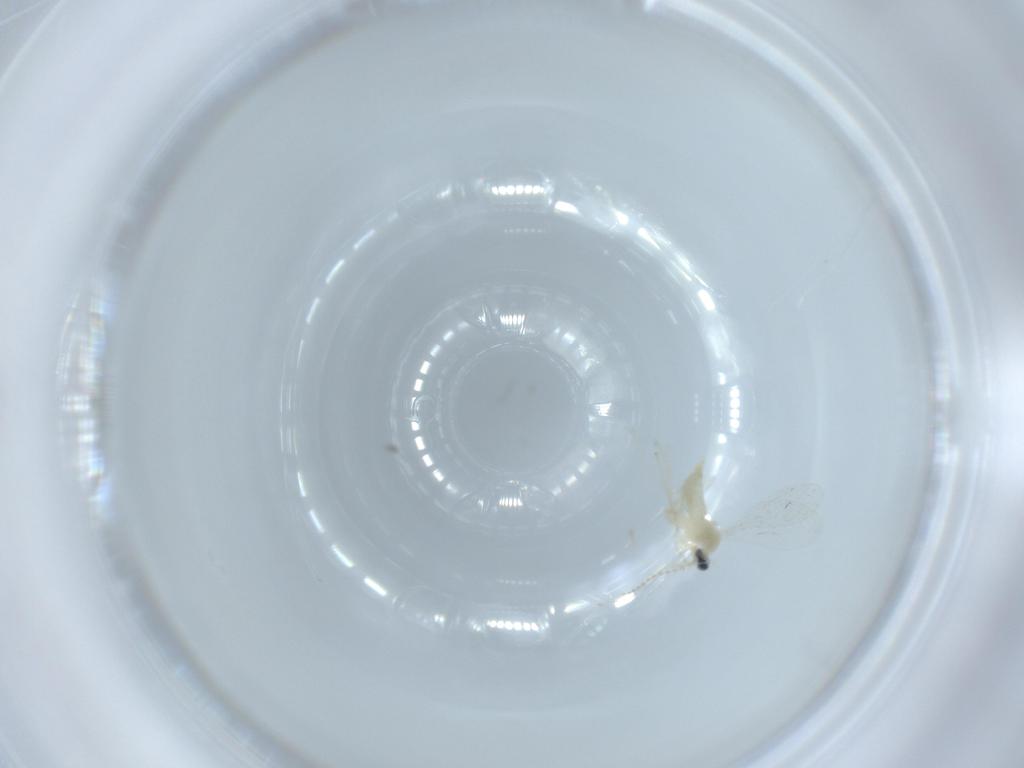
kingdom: Animalia
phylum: Arthropoda
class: Insecta
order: Diptera
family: Cecidomyiidae
